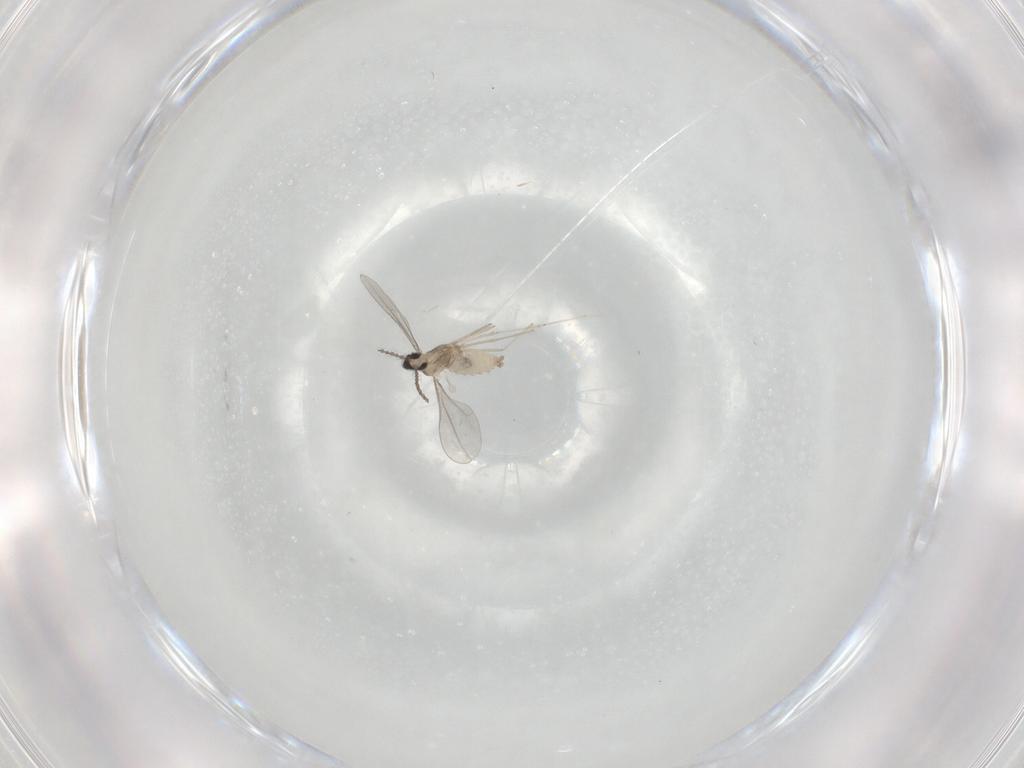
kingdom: Animalia
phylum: Arthropoda
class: Insecta
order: Diptera
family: Cecidomyiidae
